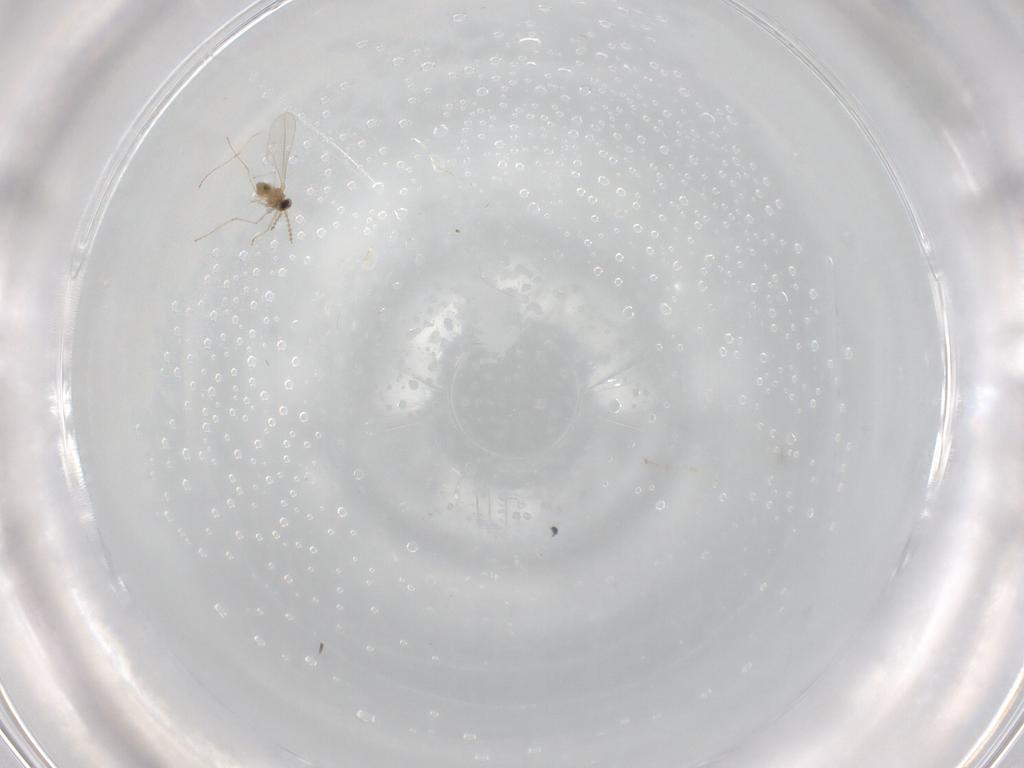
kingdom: Animalia
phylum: Arthropoda
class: Insecta
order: Diptera
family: Cecidomyiidae
